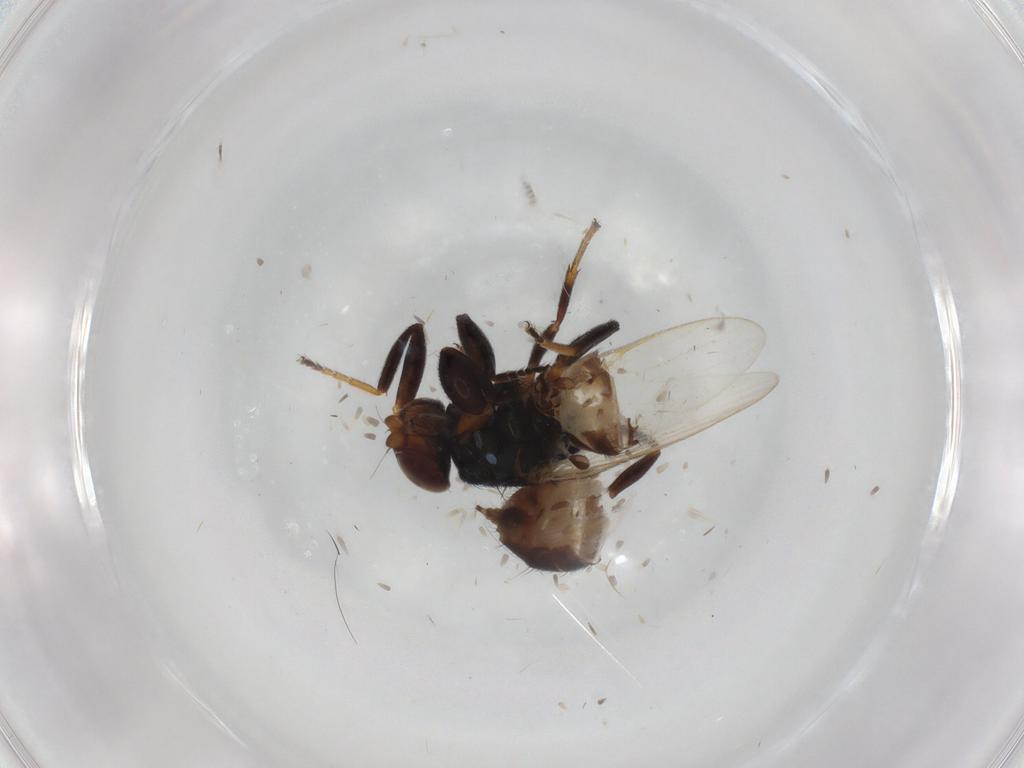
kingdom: Animalia
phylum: Arthropoda
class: Insecta
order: Diptera
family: Chloropidae
